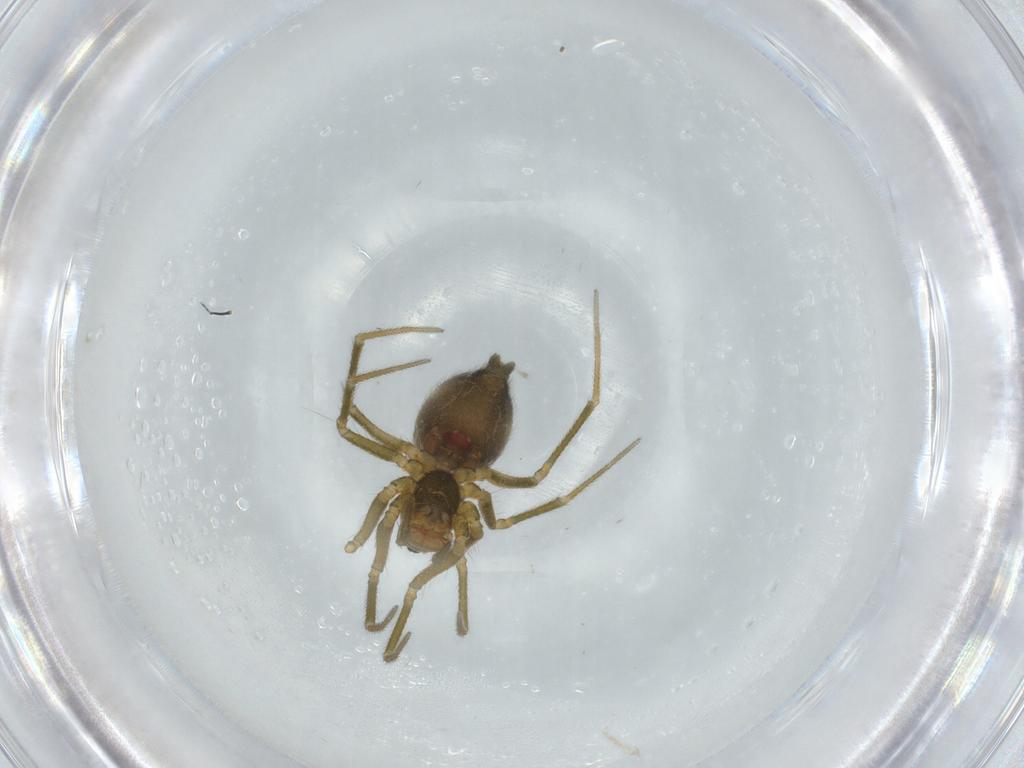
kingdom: Animalia
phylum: Arthropoda
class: Arachnida
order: Araneae
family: Linyphiidae
